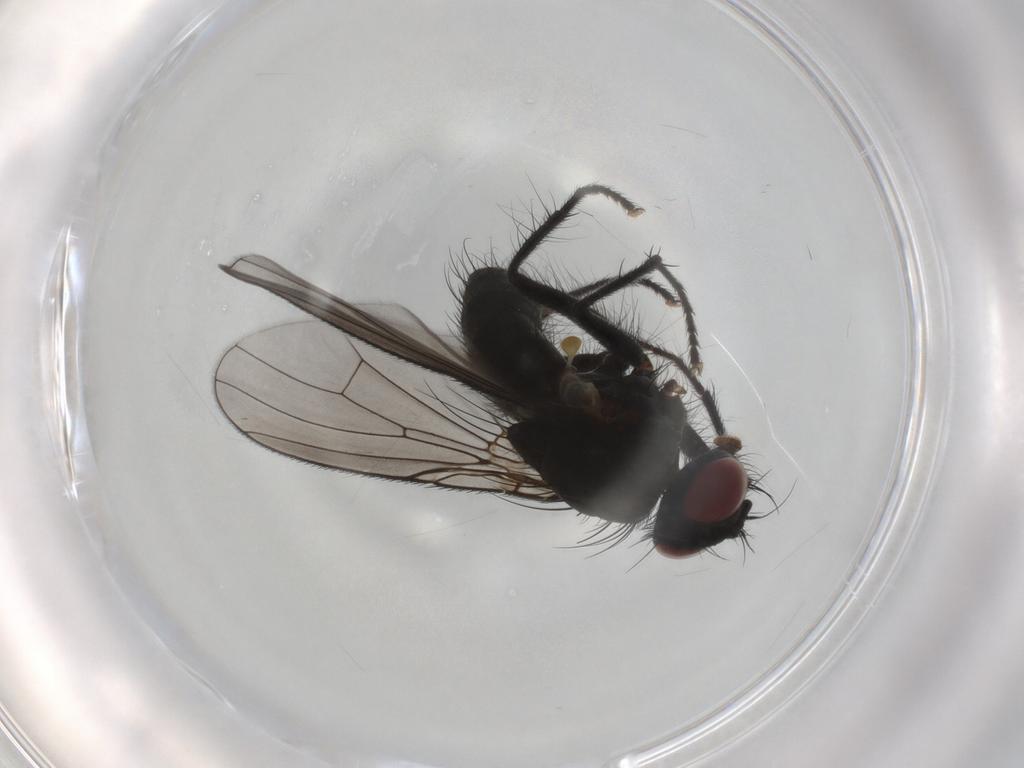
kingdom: Animalia
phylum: Arthropoda
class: Insecta
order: Diptera
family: Muscidae
